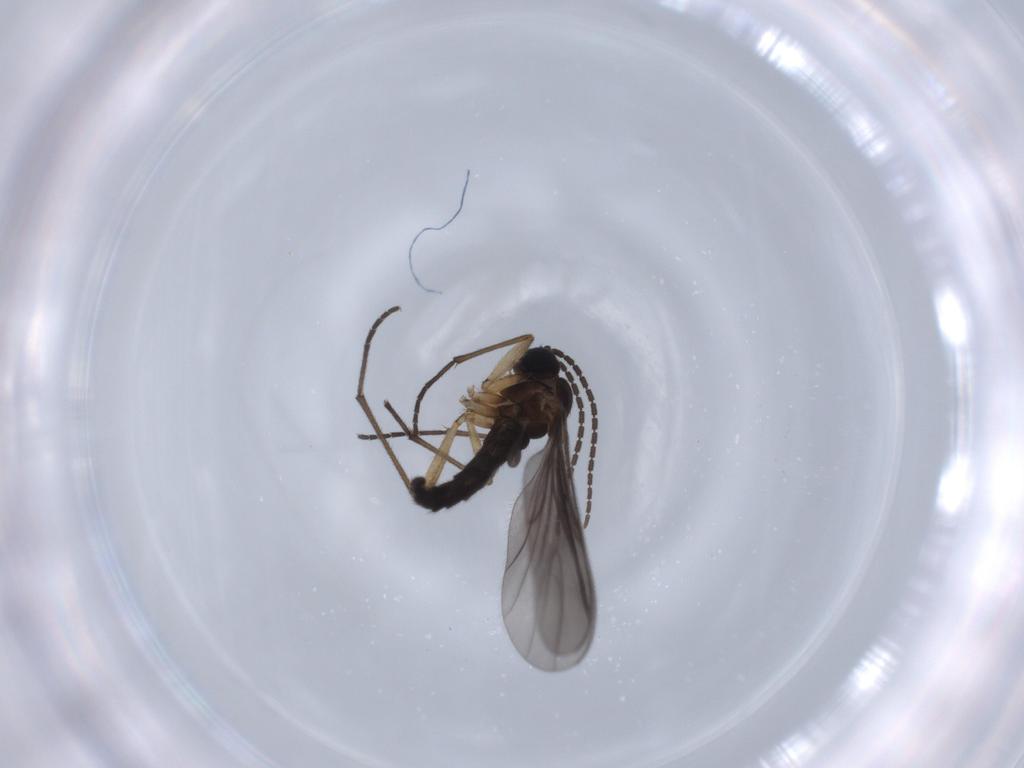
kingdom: Animalia
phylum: Arthropoda
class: Insecta
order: Diptera
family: Sciaridae
